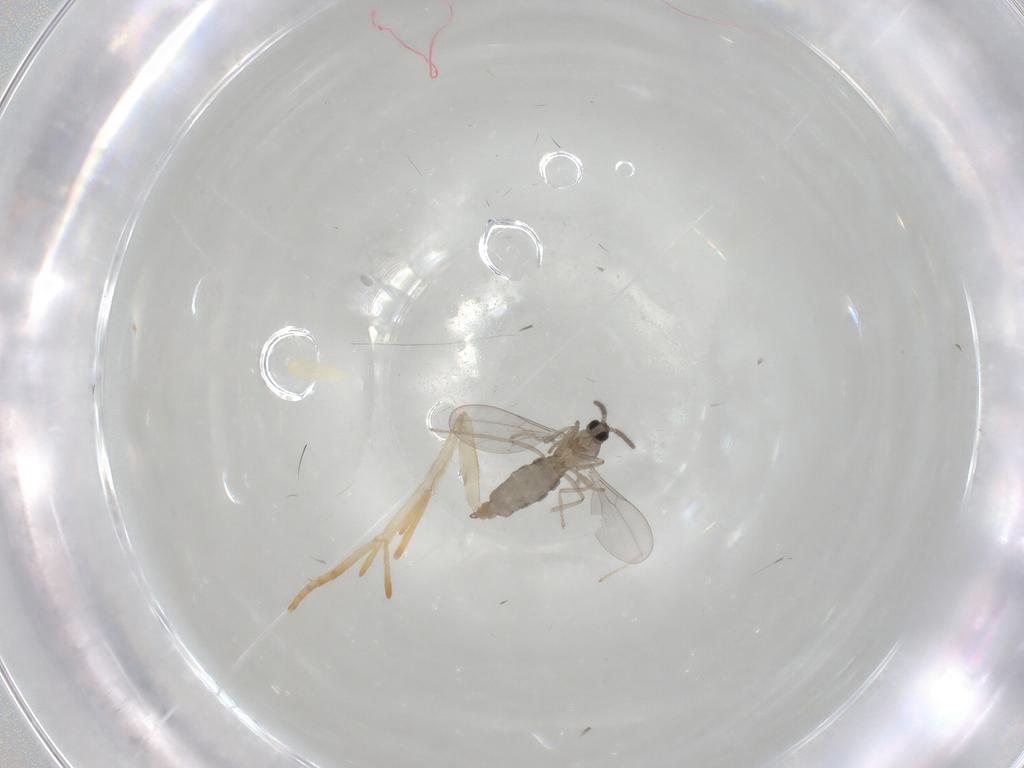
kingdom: Animalia
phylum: Arthropoda
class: Insecta
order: Diptera
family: Cecidomyiidae
